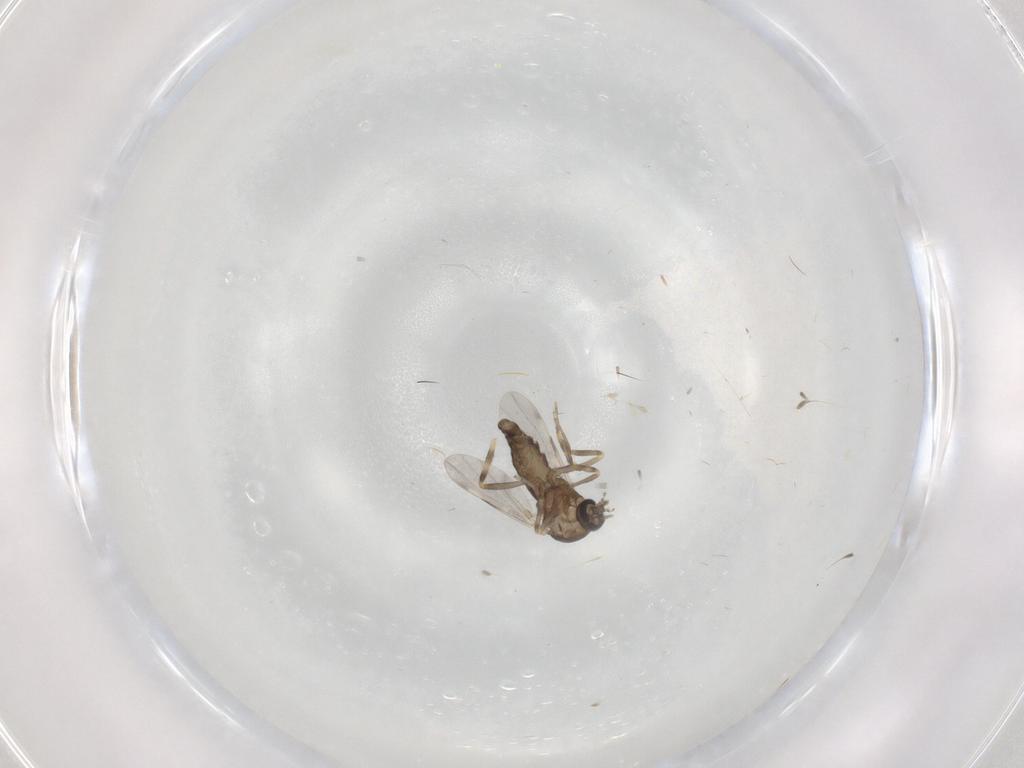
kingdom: Animalia
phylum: Arthropoda
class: Insecta
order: Diptera
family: Ceratopogonidae
